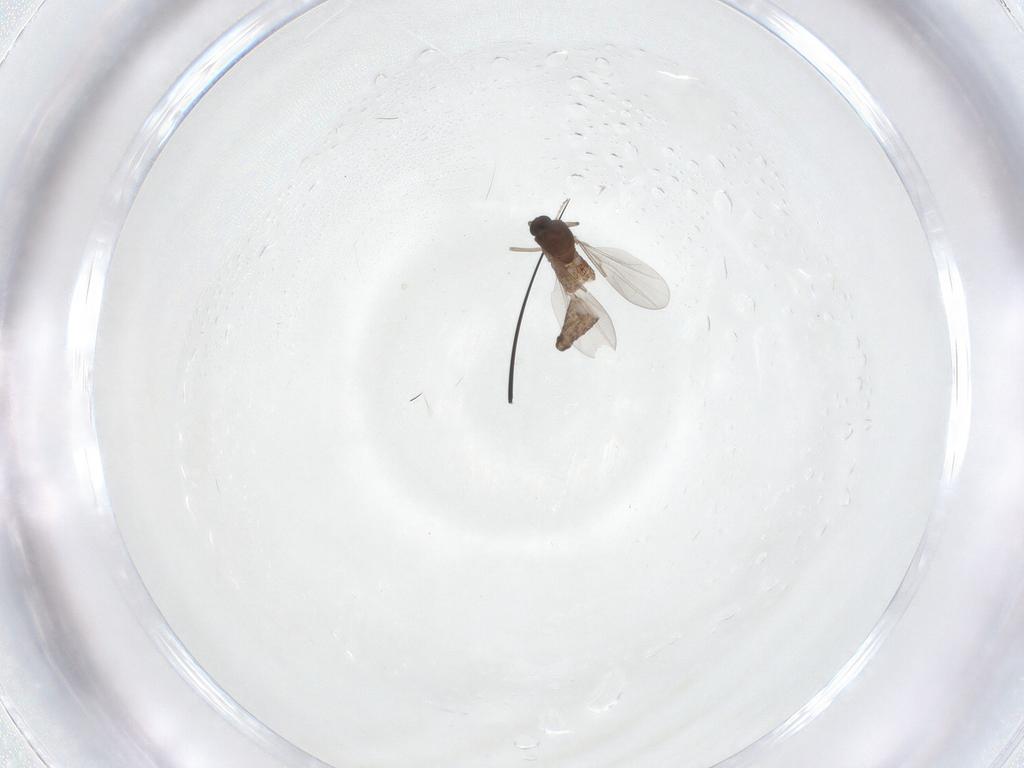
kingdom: Animalia
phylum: Arthropoda
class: Insecta
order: Diptera
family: Ceratopogonidae
